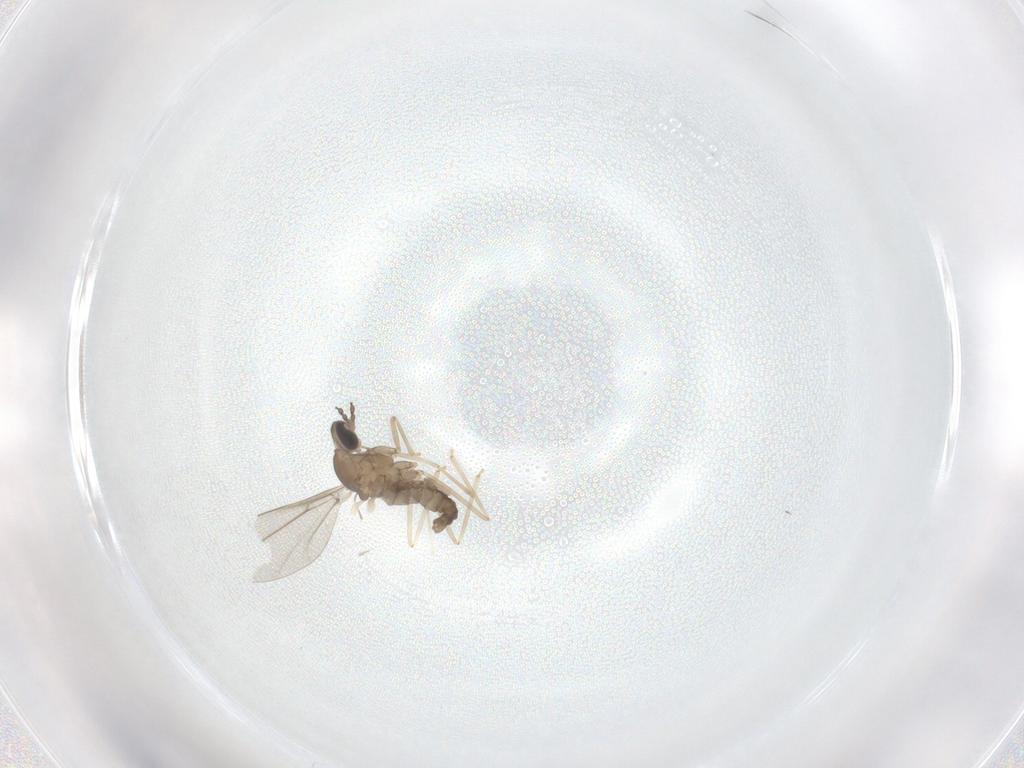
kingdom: Animalia
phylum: Arthropoda
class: Insecta
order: Diptera
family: Cecidomyiidae
